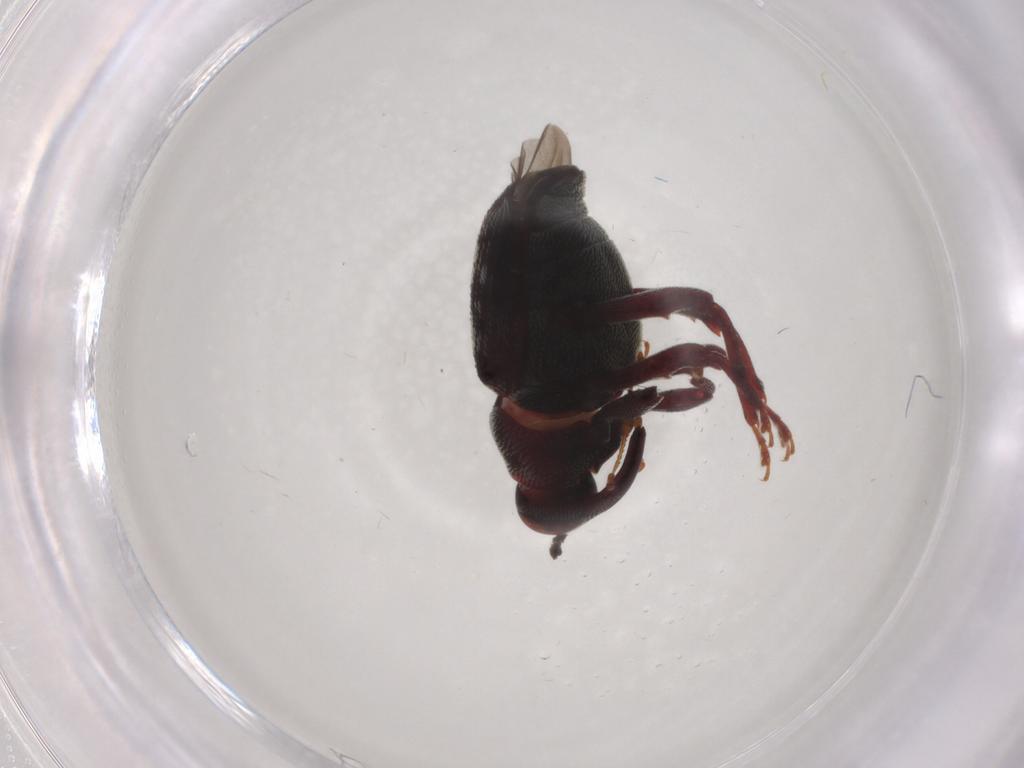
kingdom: Animalia
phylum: Arthropoda
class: Insecta
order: Coleoptera
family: Curculionidae
